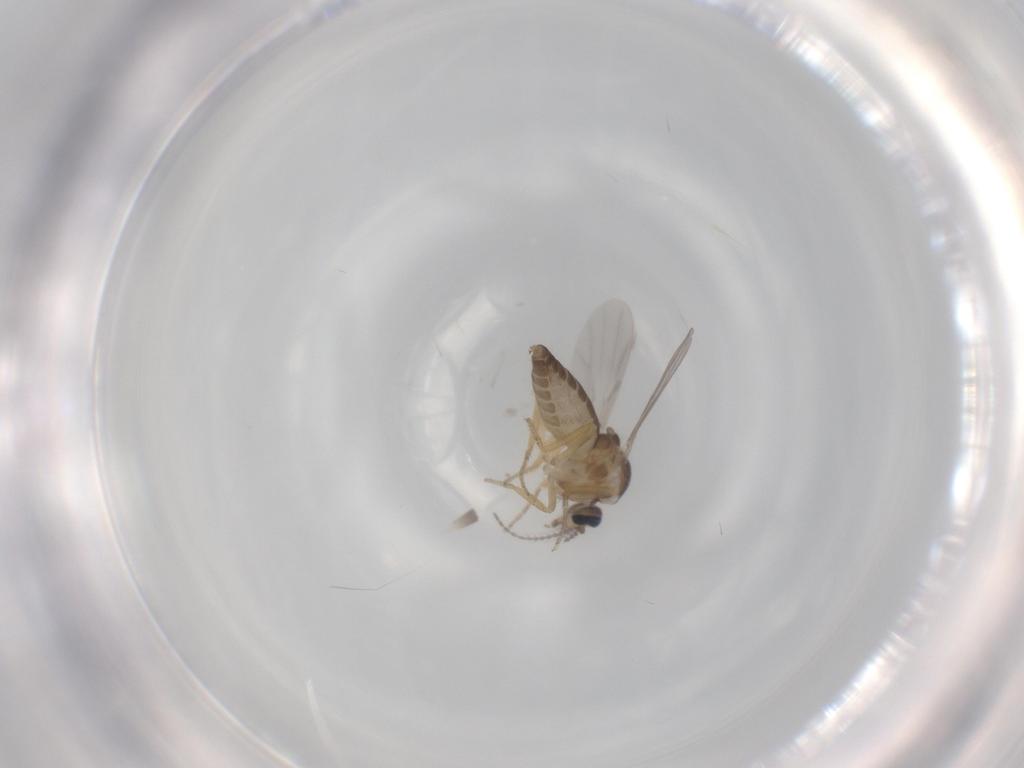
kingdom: Animalia
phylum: Arthropoda
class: Insecta
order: Diptera
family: Ceratopogonidae
